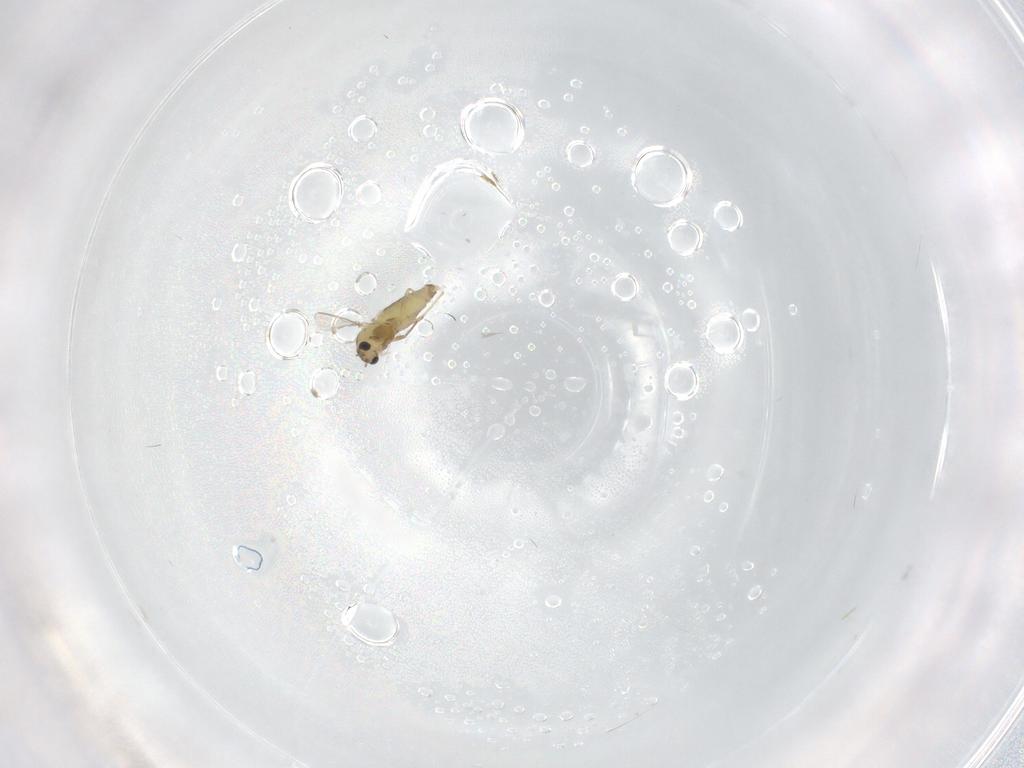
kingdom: Animalia
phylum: Arthropoda
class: Insecta
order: Diptera
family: Chironomidae
